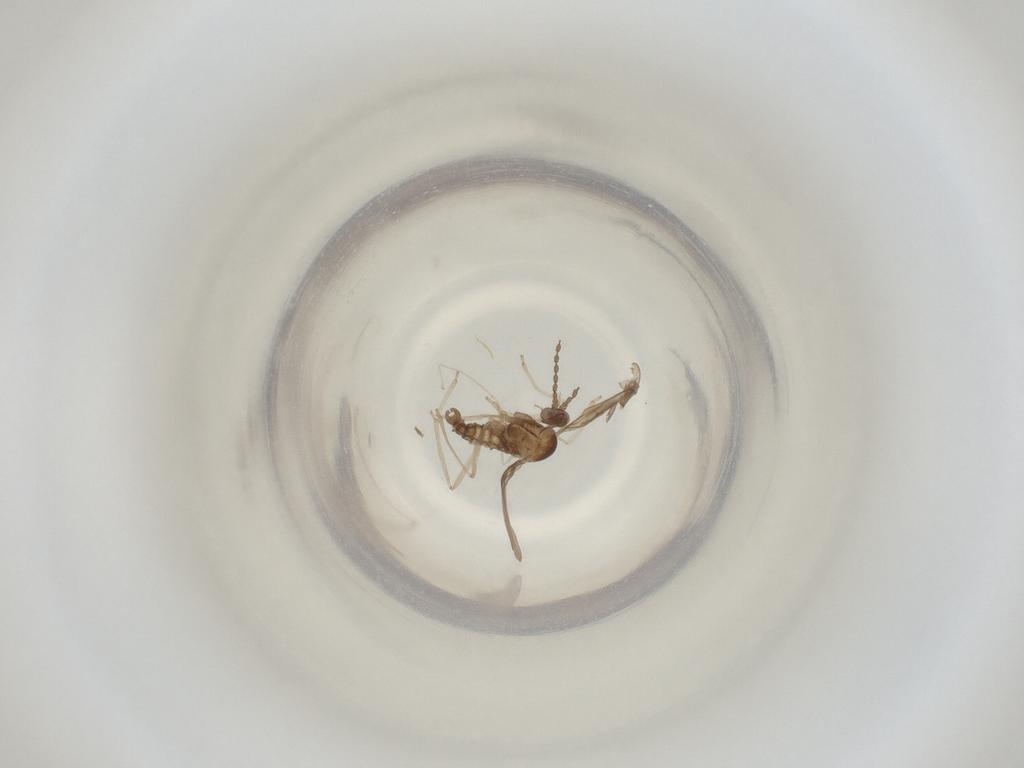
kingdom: Animalia
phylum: Arthropoda
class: Insecta
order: Diptera
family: Cecidomyiidae
